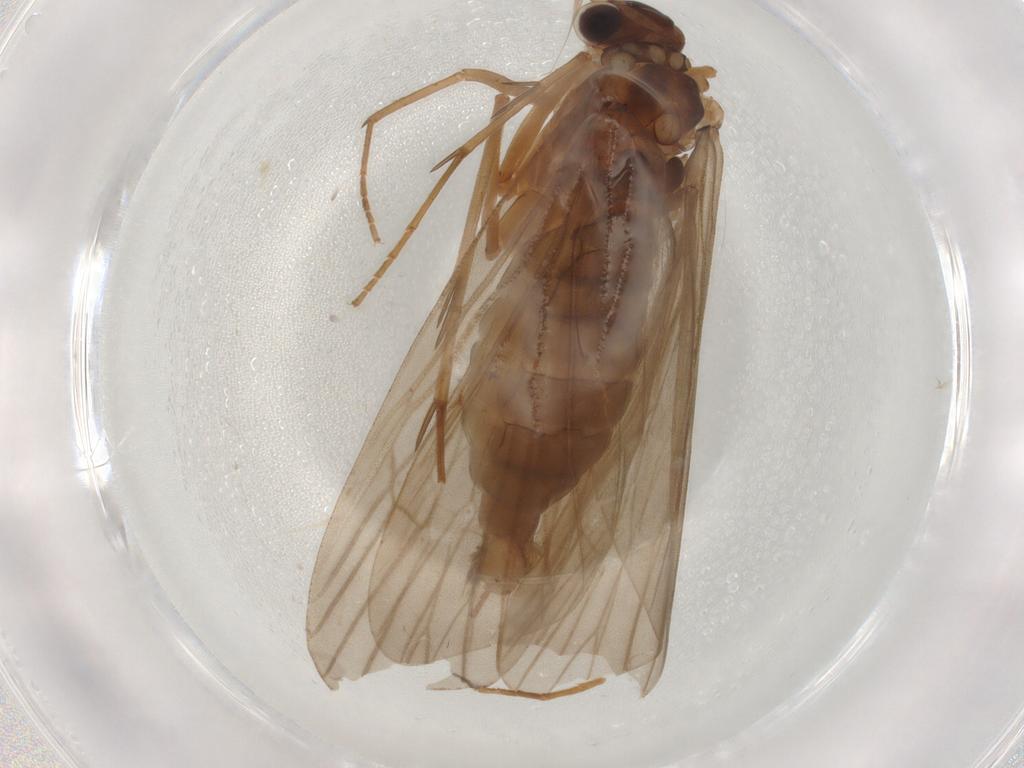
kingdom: Animalia
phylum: Arthropoda
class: Insecta
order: Trichoptera
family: Philopotamidae
